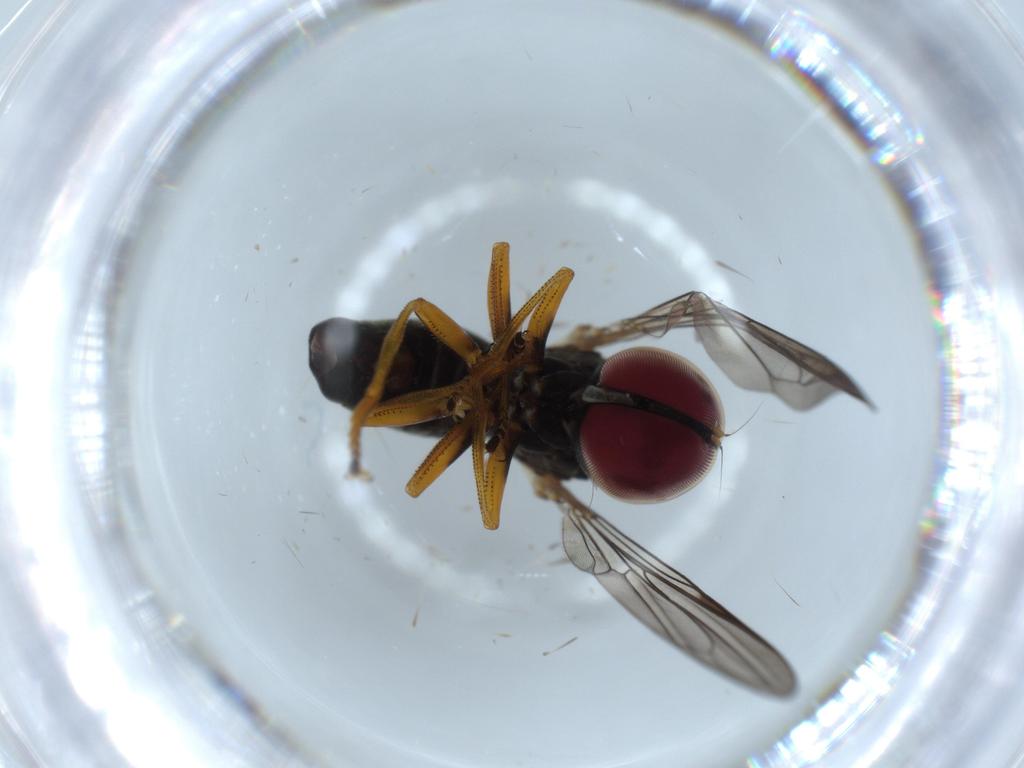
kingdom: Animalia
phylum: Arthropoda
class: Insecta
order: Diptera
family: Pipunculidae
